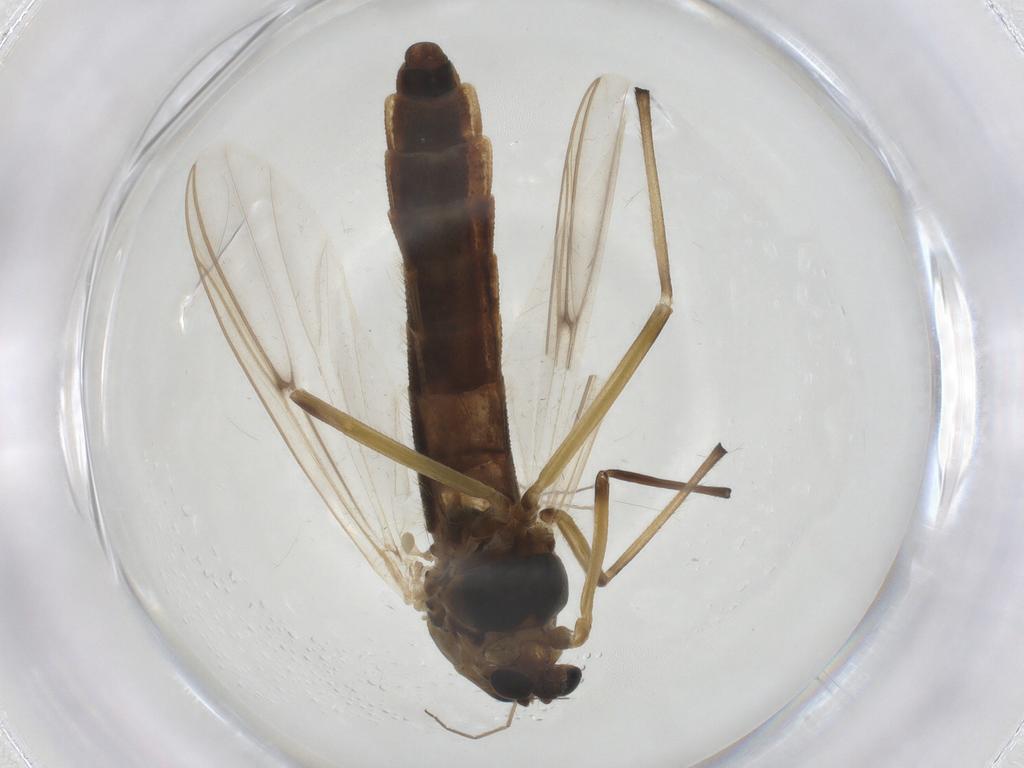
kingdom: Animalia
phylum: Arthropoda
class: Insecta
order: Diptera
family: Chironomidae
